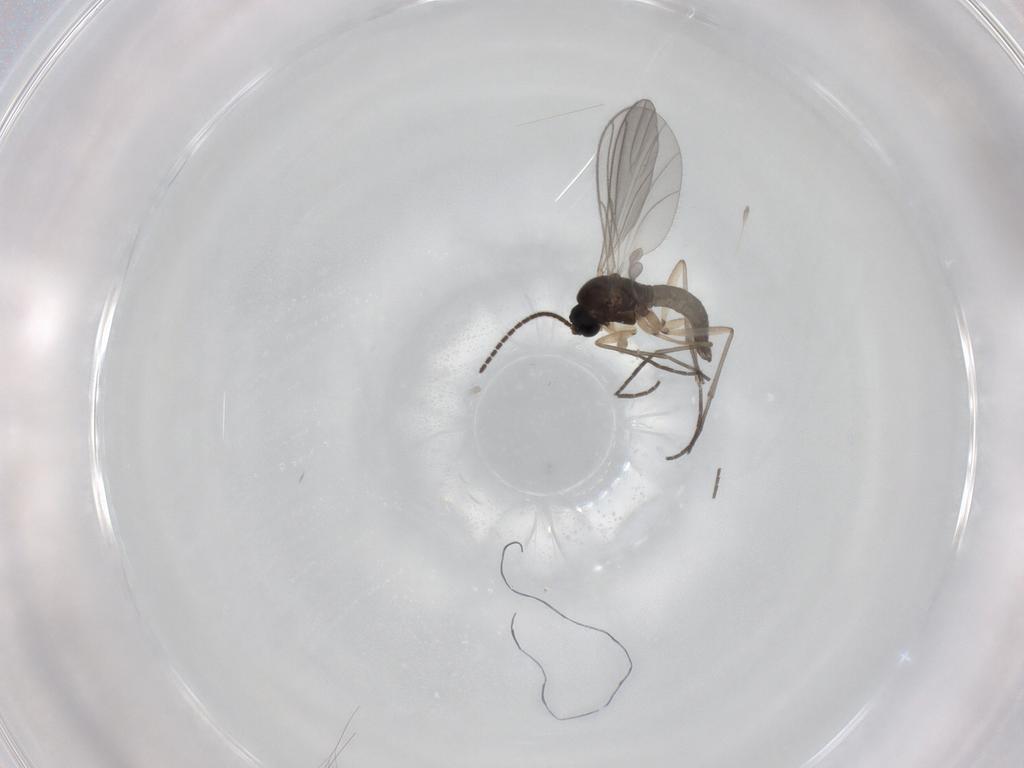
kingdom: Animalia
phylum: Arthropoda
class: Insecta
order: Diptera
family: Sciaridae
